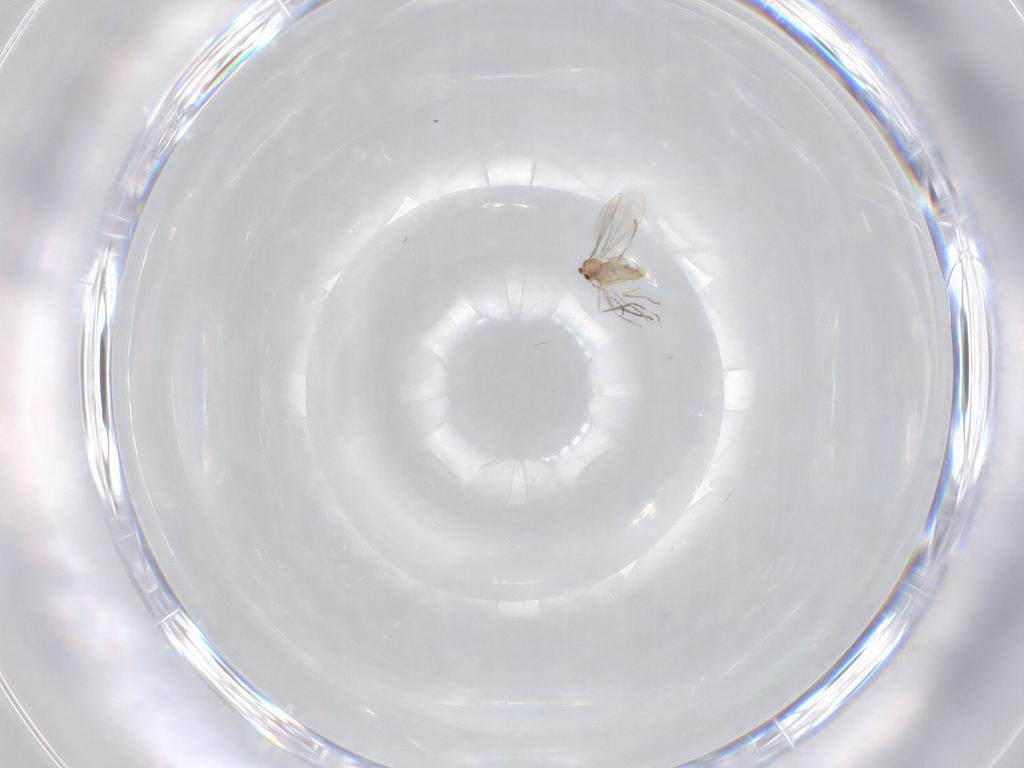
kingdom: Animalia
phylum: Arthropoda
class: Insecta
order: Diptera
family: Cecidomyiidae
